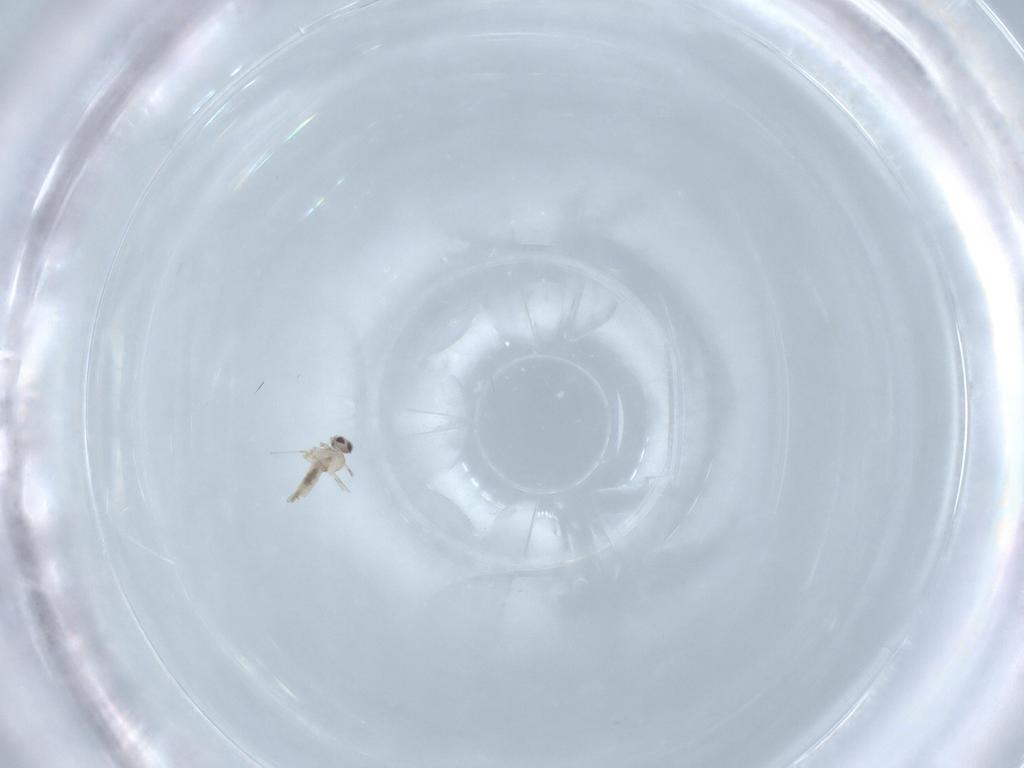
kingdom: Animalia
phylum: Arthropoda
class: Insecta
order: Diptera
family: Cecidomyiidae
